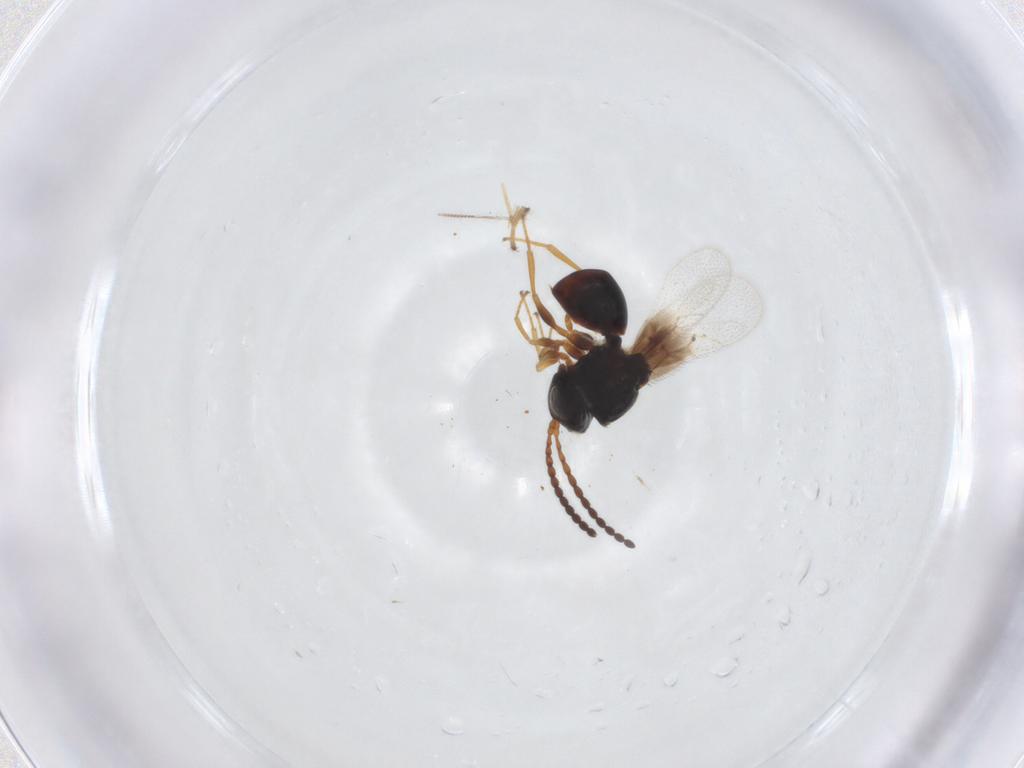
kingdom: Animalia
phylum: Arthropoda
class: Insecta
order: Hymenoptera
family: Figitidae
